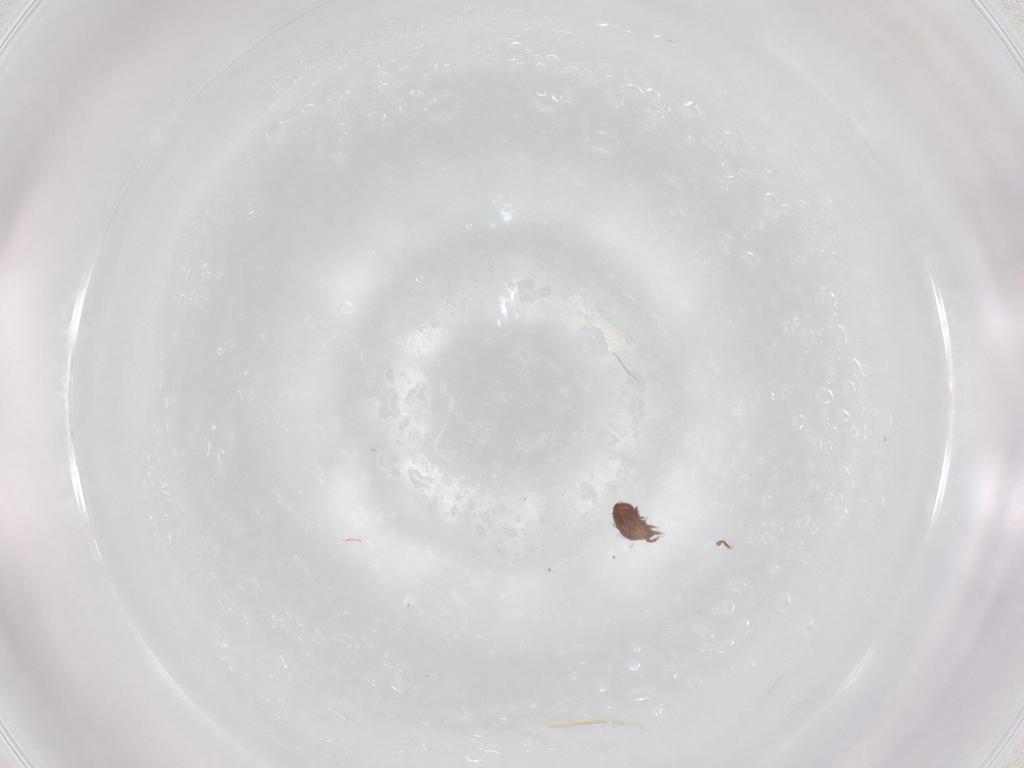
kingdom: Animalia
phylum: Arthropoda
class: Arachnida
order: Sarcoptiformes
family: Achipteriidae
